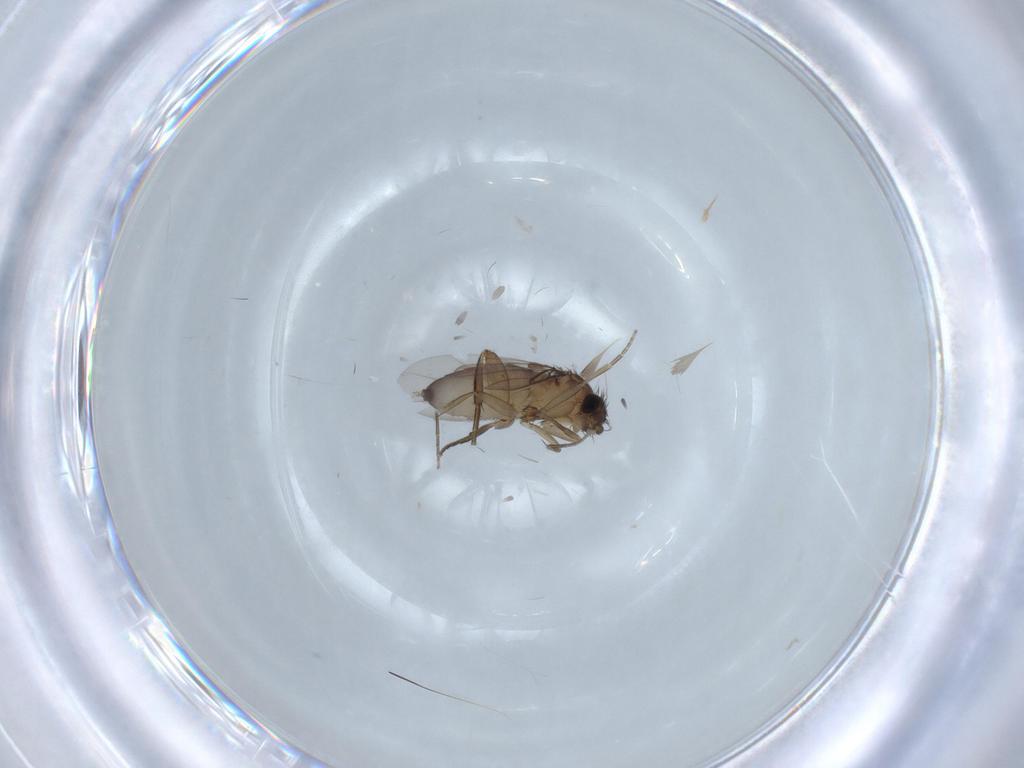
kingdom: Animalia
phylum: Arthropoda
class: Insecta
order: Diptera
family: Phoridae
